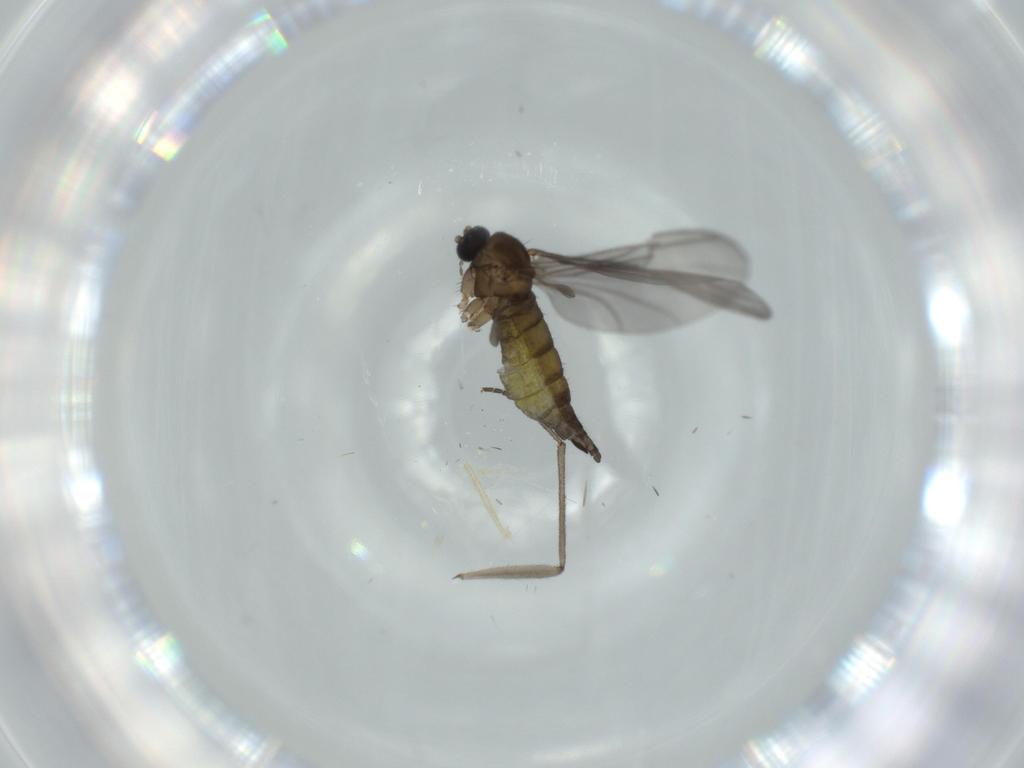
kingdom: Animalia
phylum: Arthropoda
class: Insecta
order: Diptera
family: Sciaridae
